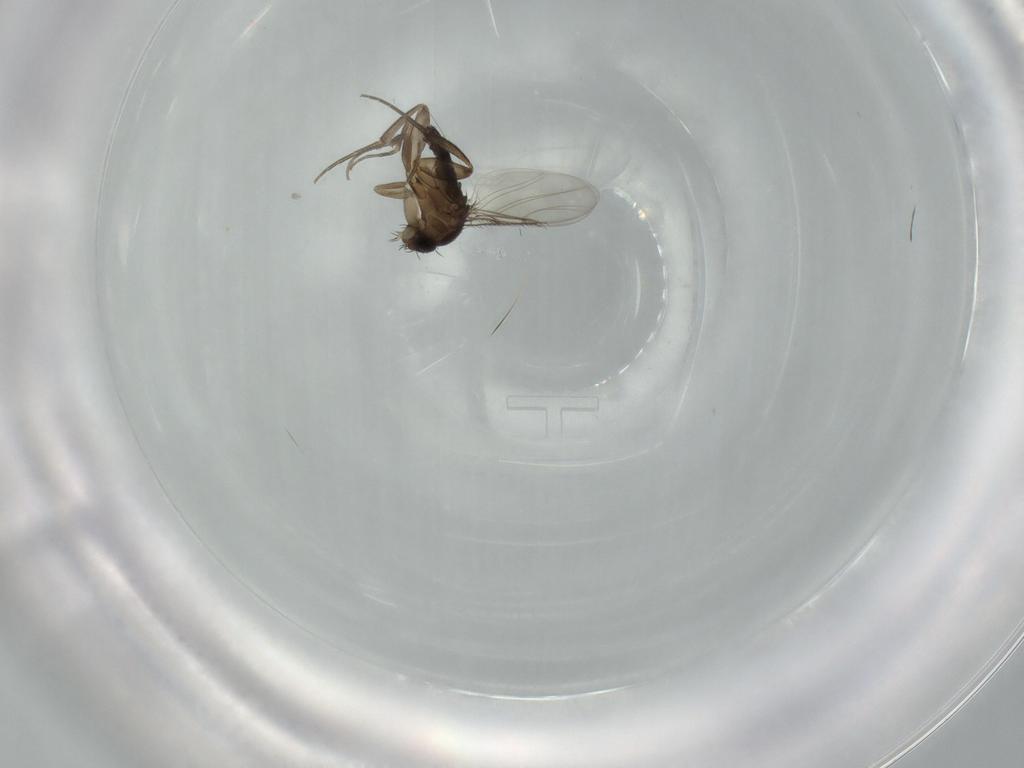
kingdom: Animalia
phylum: Arthropoda
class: Insecta
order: Diptera
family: Phoridae
